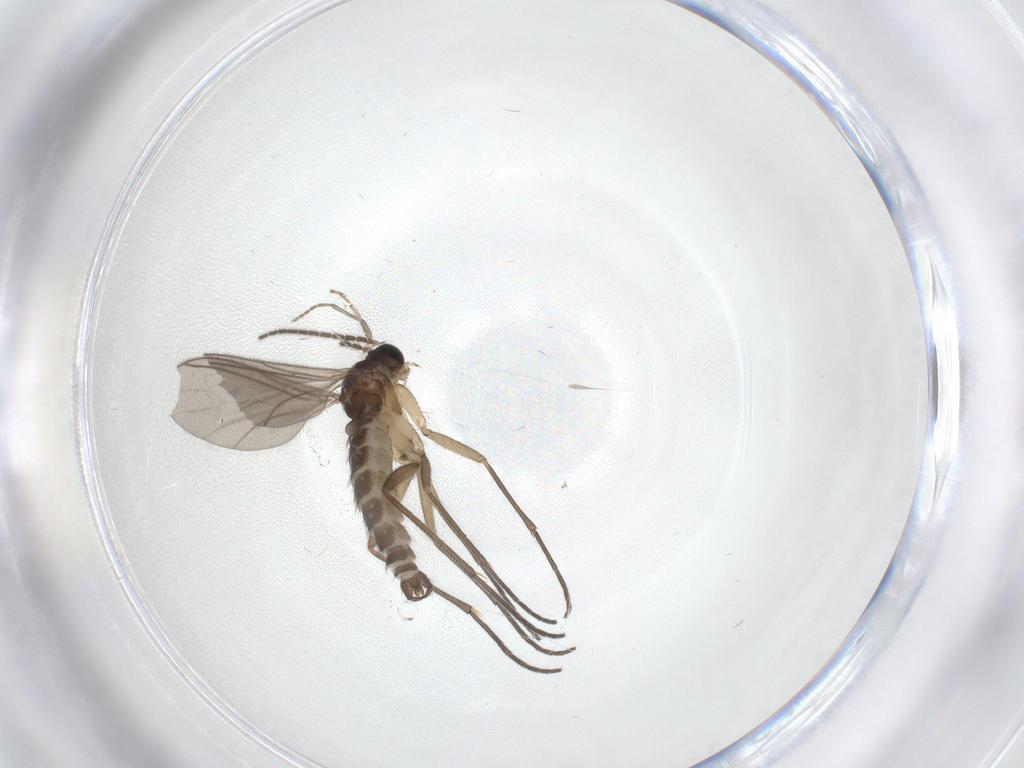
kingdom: Animalia
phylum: Arthropoda
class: Insecta
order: Diptera
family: Sciaridae
